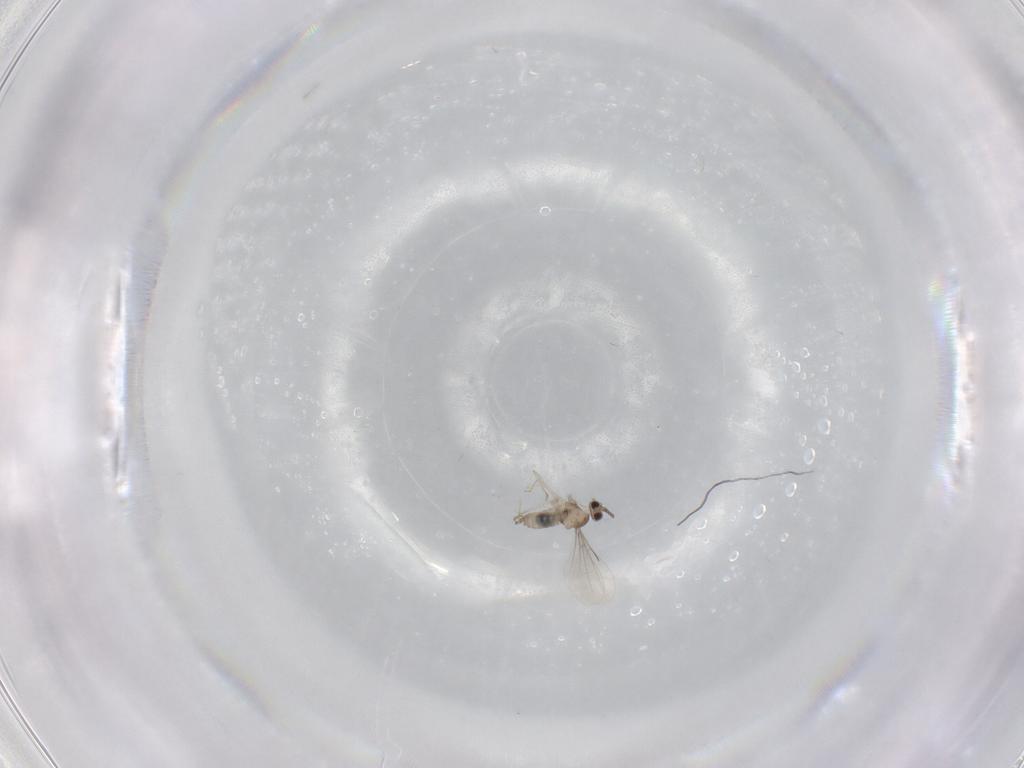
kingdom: Animalia
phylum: Arthropoda
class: Insecta
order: Diptera
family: Cecidomyiidae
